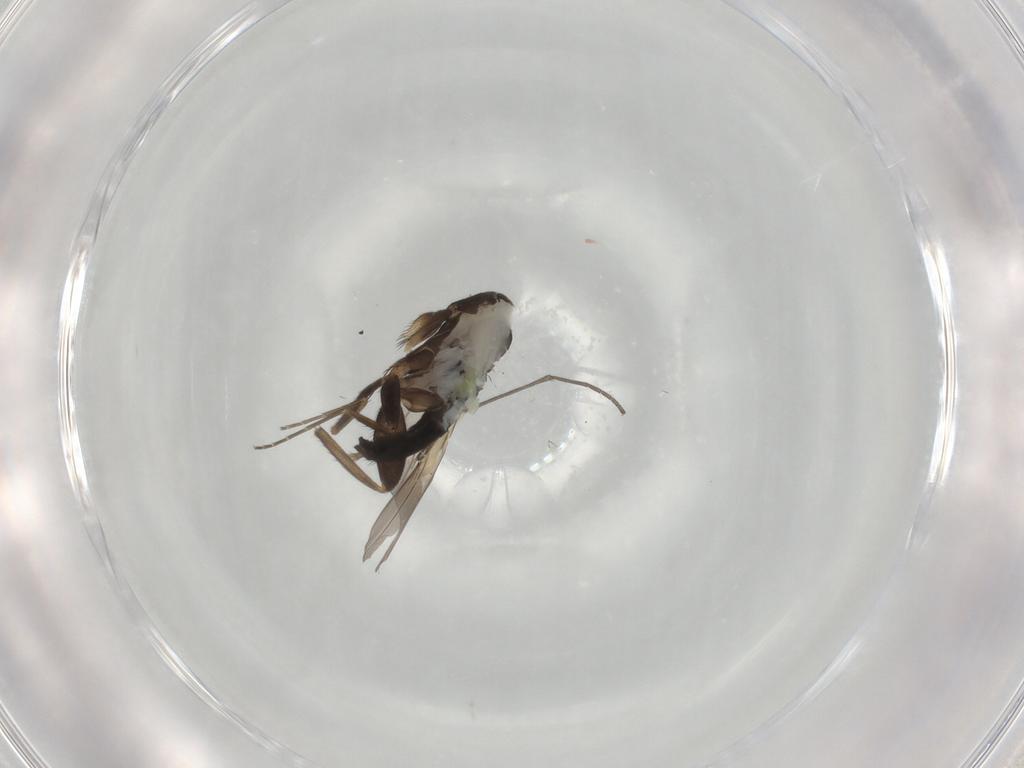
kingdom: Animalia
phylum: Arthropoda
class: Insecta
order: Diptera
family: Phoridae
